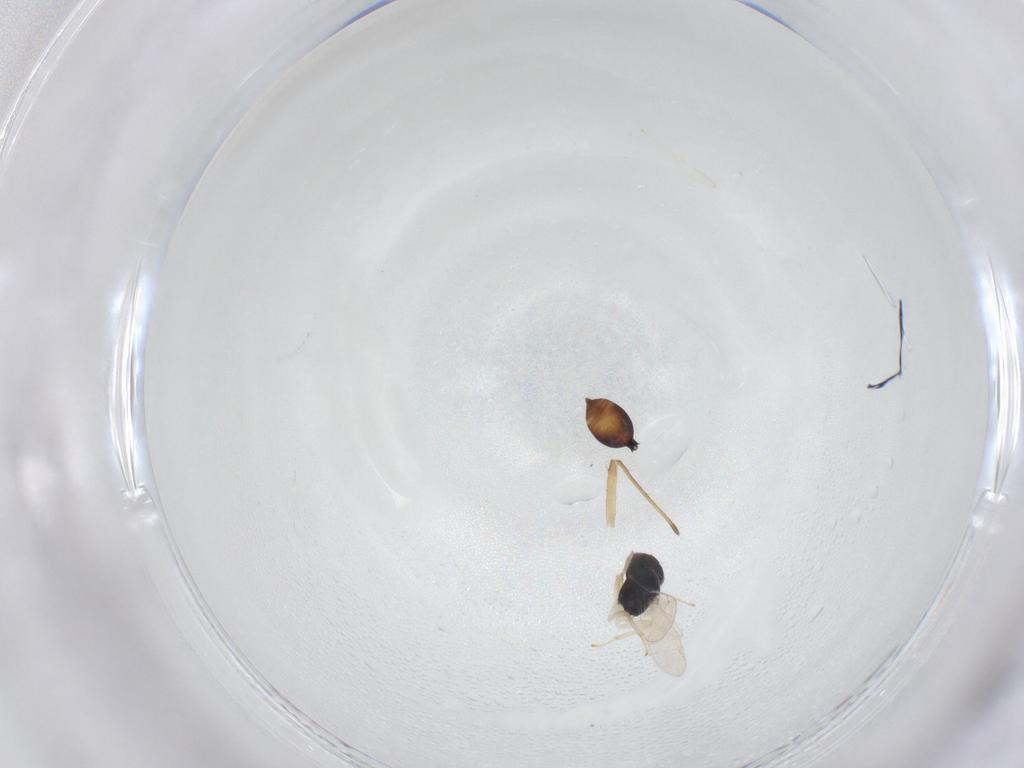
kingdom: Animalia
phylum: Arthropoda
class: Insecta
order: Hymenoptera
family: Eulophidae
